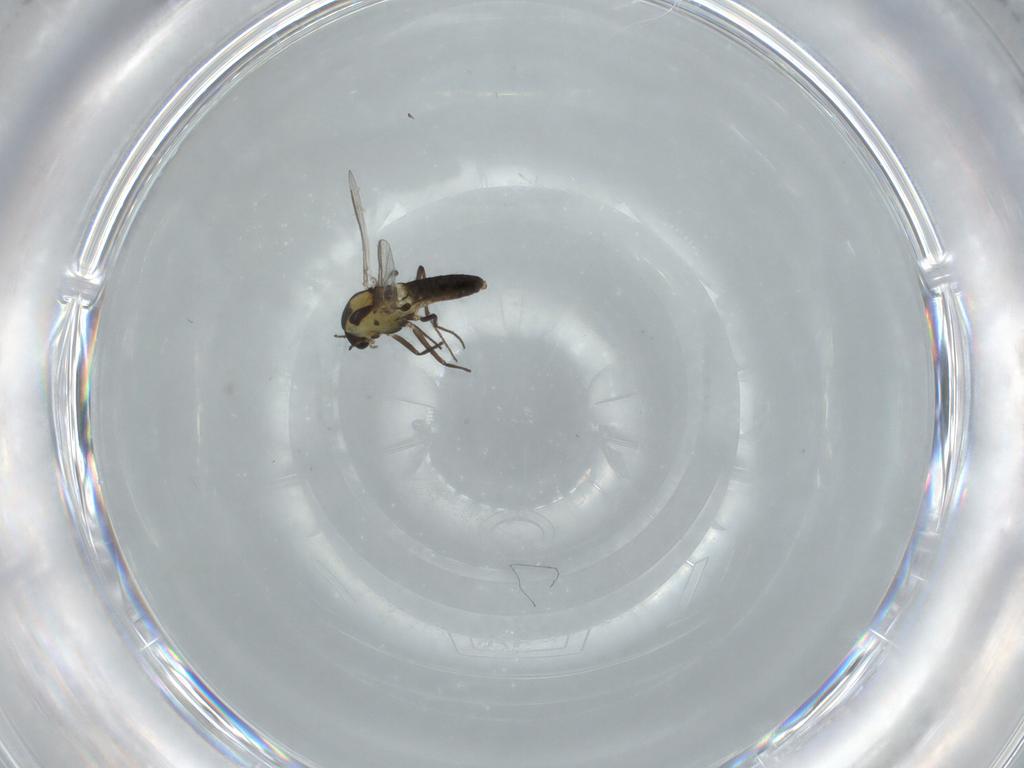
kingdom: Animalia
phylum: Arthropoda
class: Insecta
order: Diptera
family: Chironomidae
